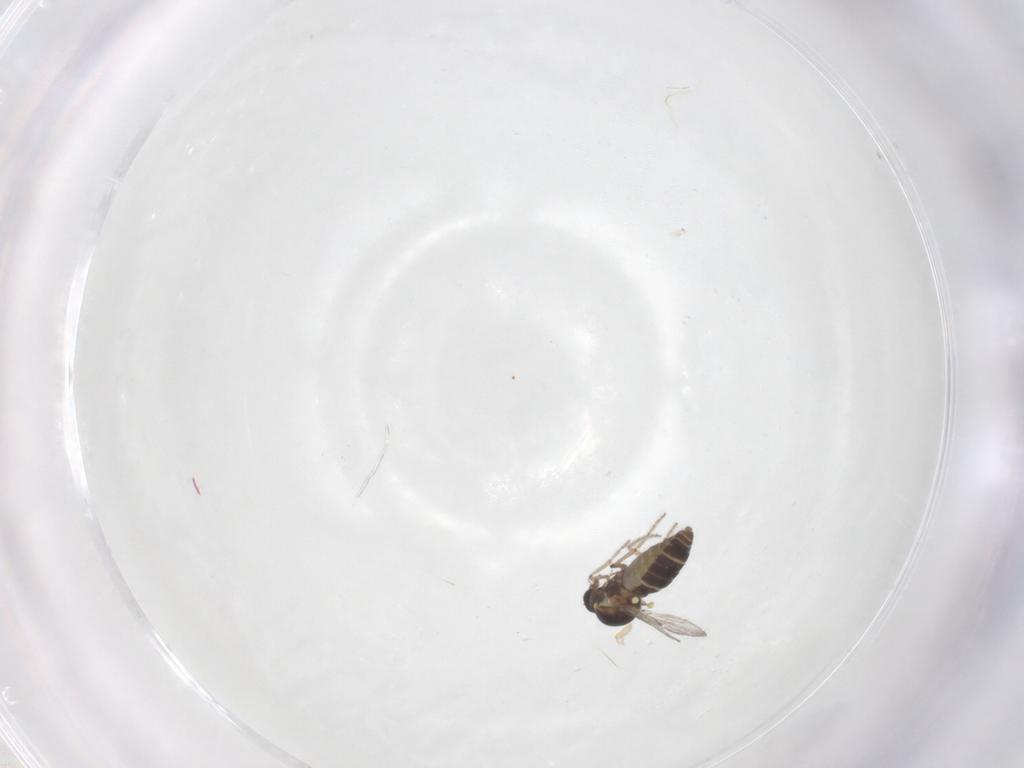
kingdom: Animalia
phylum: Arthropoda
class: Insecta
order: Diptera
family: Ceratopogonidae
